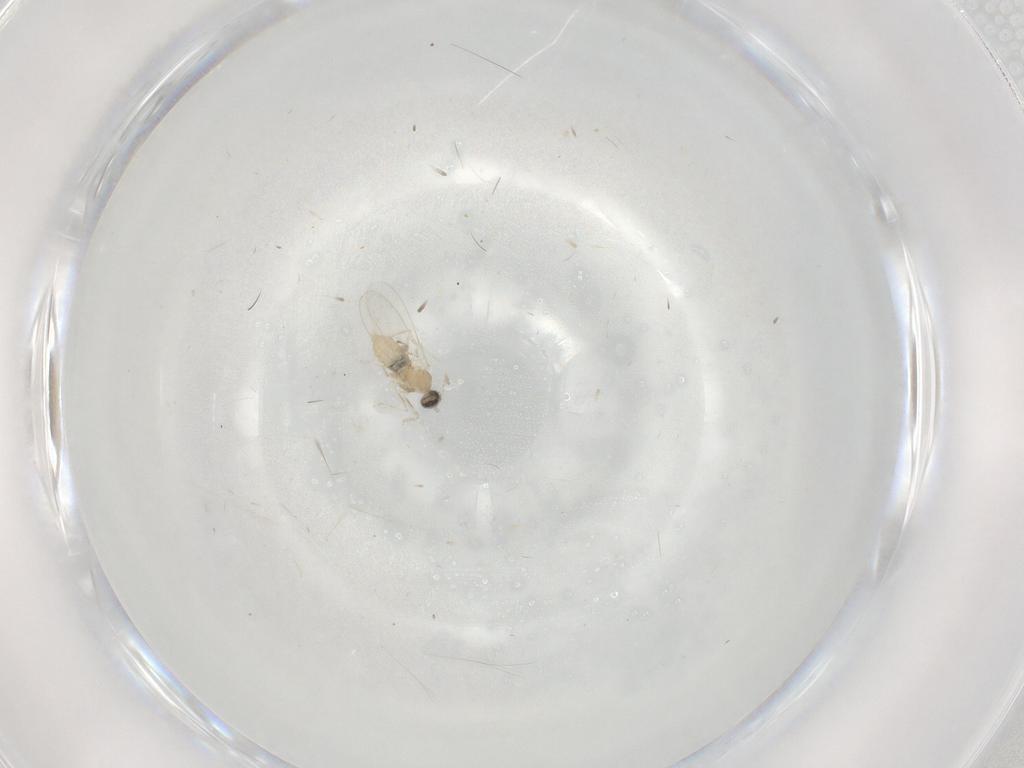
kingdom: Animalia
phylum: Arthropoda
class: Insecta
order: Diptera
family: Cecidomyiidae
